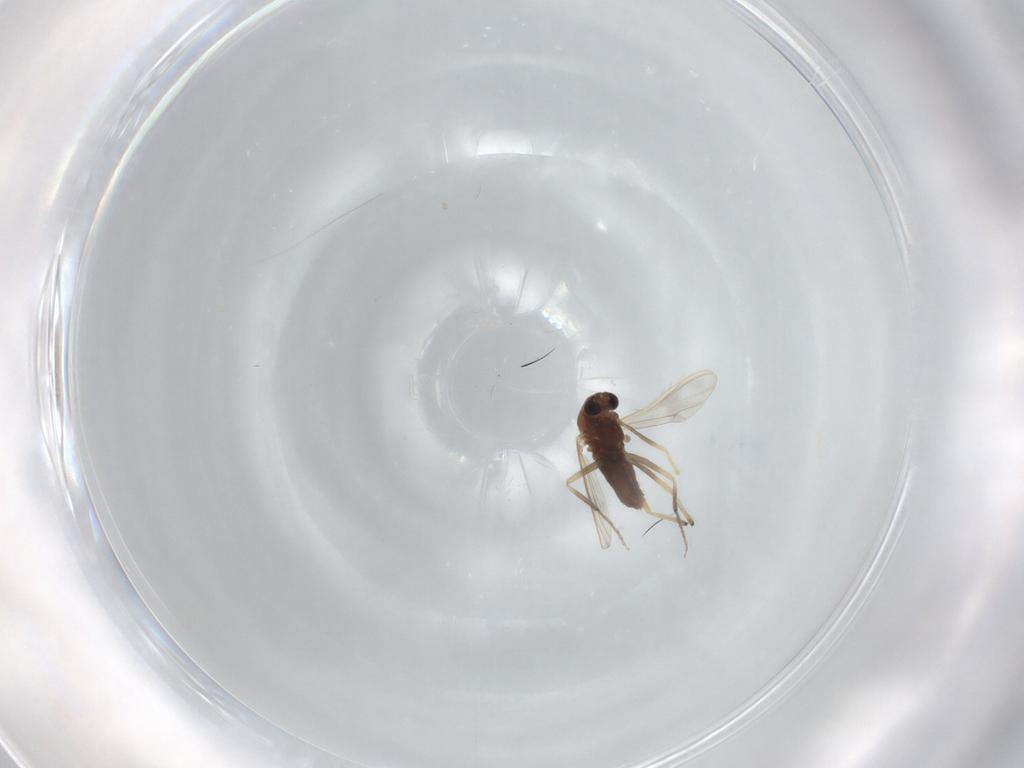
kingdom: Animalia
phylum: Arthropoda
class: Insecta
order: Diptera
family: Chironomidae
